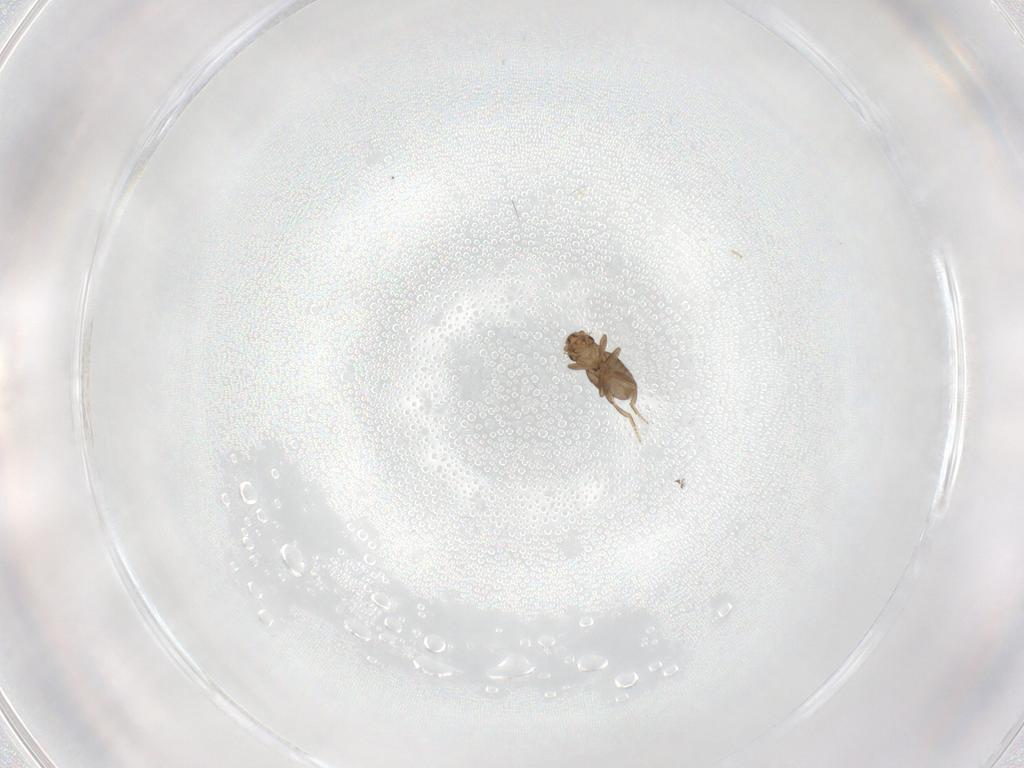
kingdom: Animalia
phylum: Arthropoda
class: Insecta
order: Diptera
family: Phoridae
